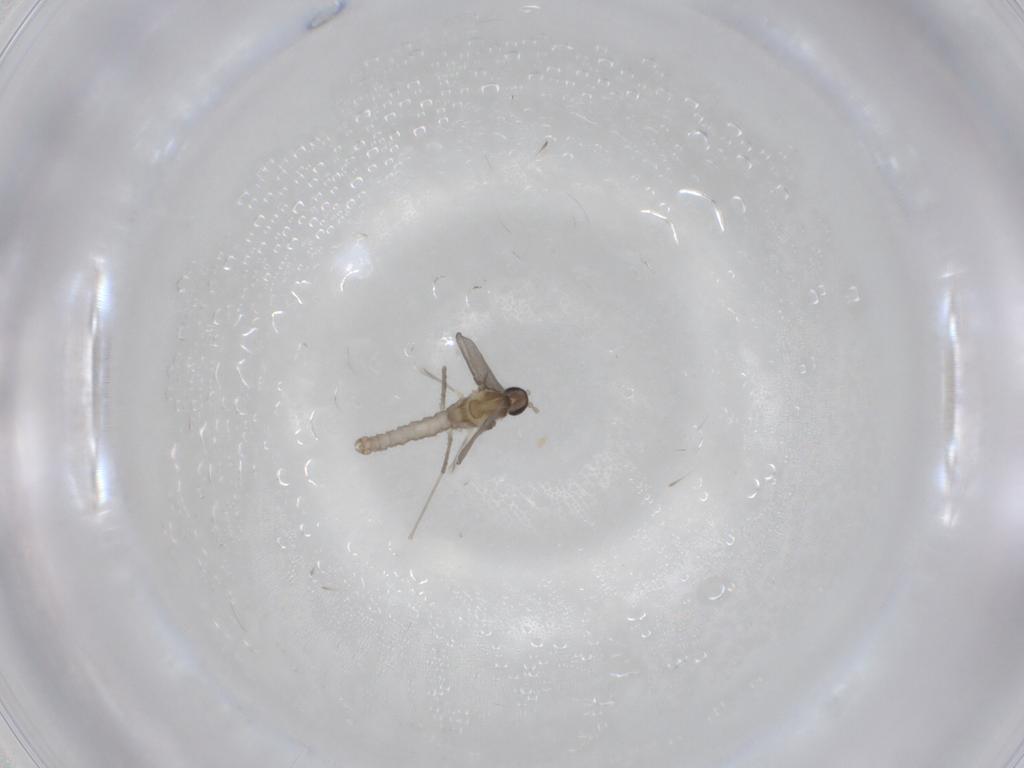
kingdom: Animalia
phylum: Arthropoda
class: Insecta
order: Diptera
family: Cecidomyiidae
